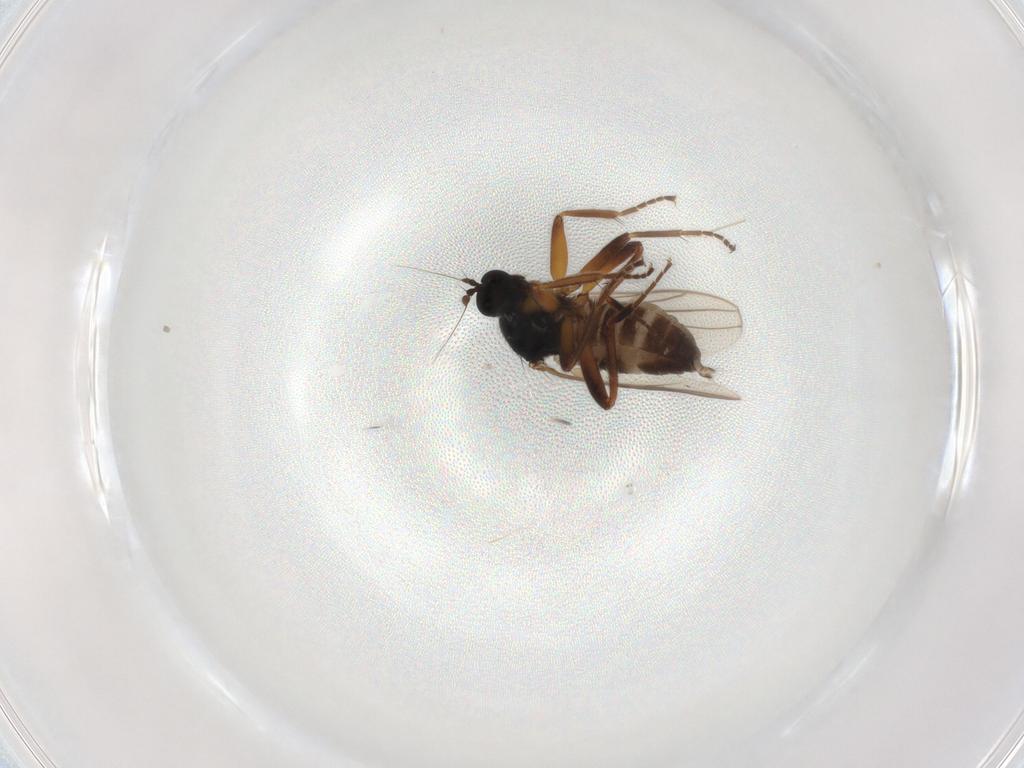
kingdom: Animalia
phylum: Arthropoda
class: Insecta
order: Diptera
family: Hybotidae
